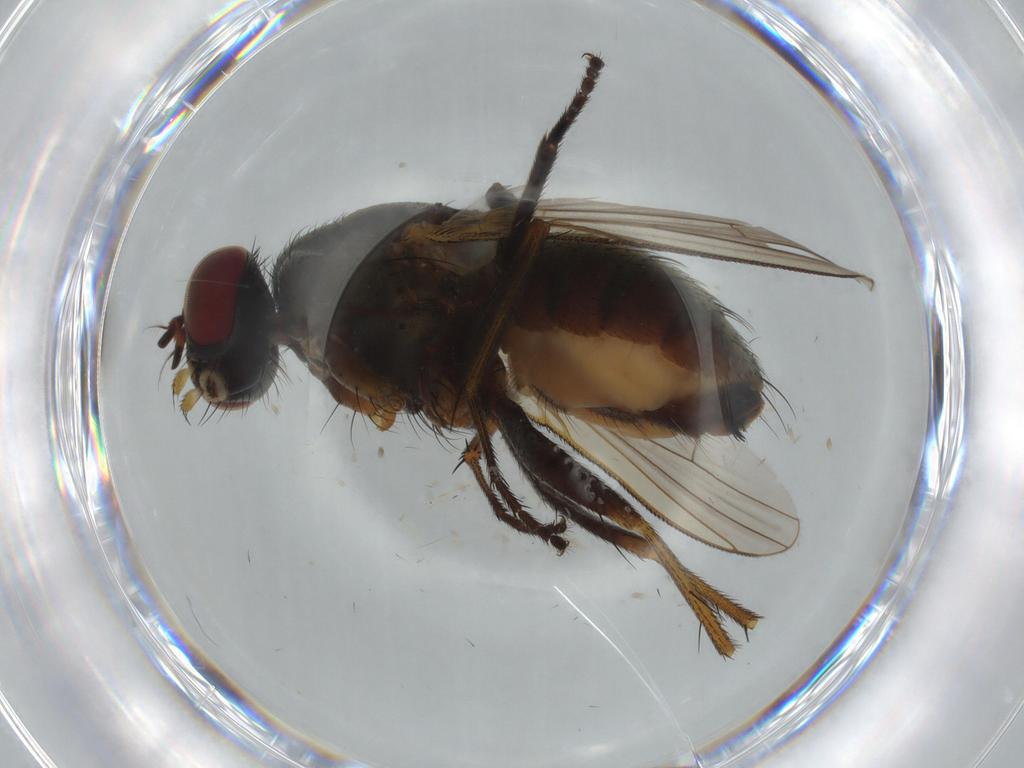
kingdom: Animalia
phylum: Arthropoda
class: Insecta
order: Diptera
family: Muscidae
